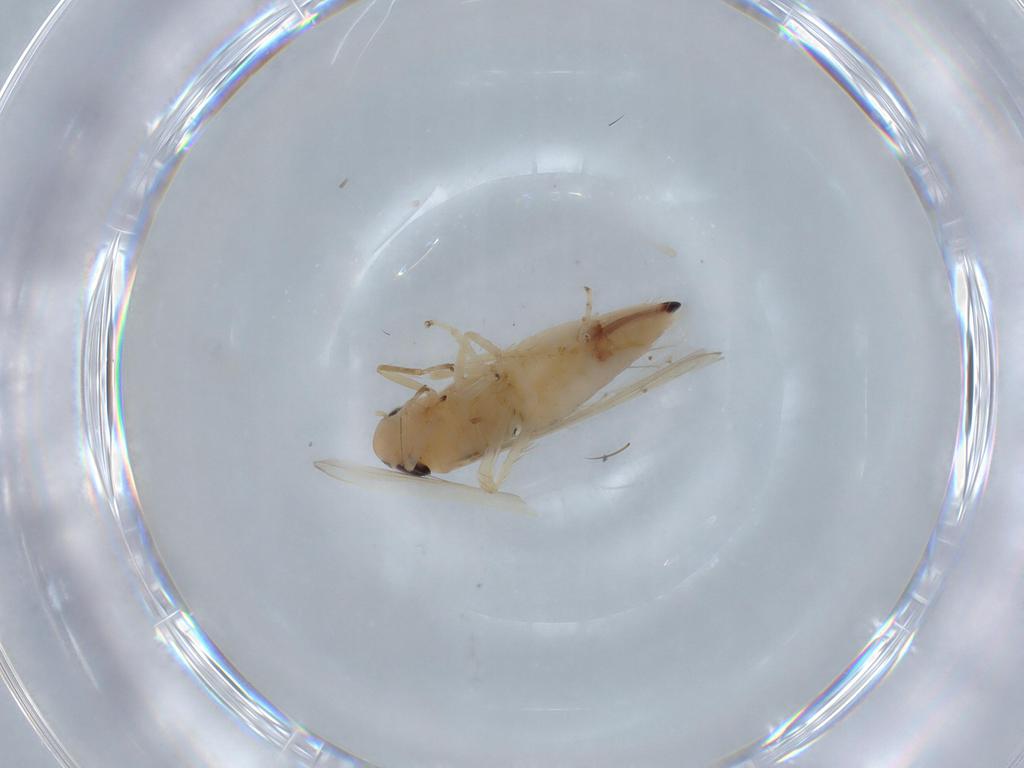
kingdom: Animalia
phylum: Arthropoda
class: Insecta
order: Hemiptera
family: Cicadellidae
